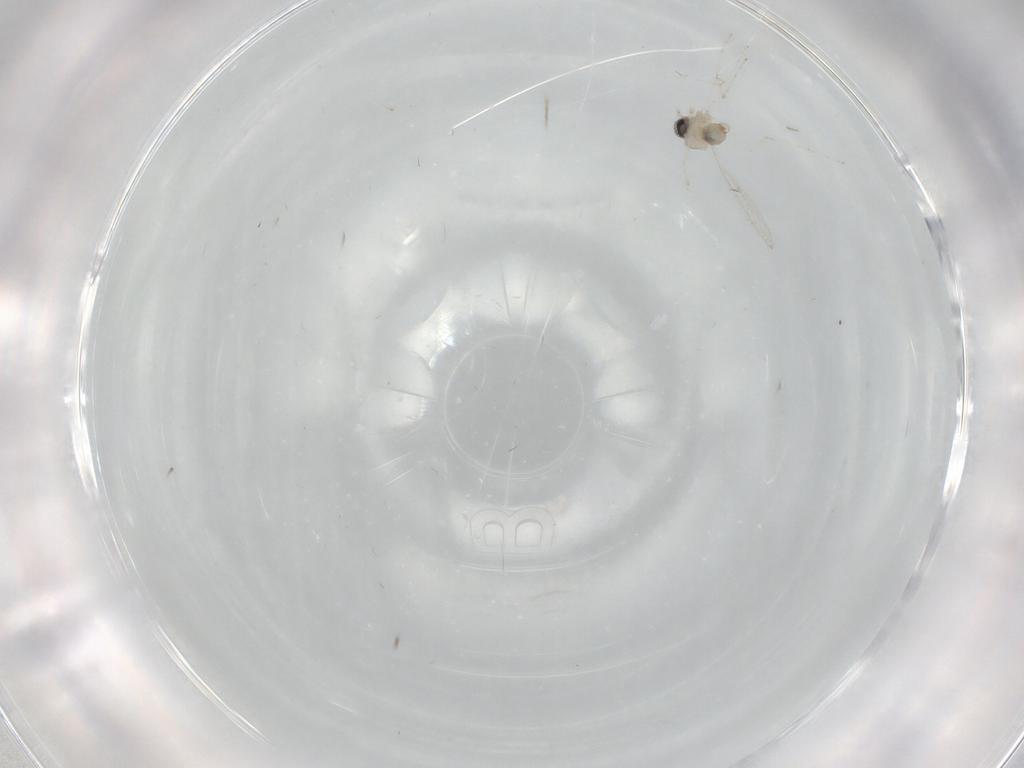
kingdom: Animalia
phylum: Arthropoda
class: Insecta
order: Diptera
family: Cecidomyiidae
